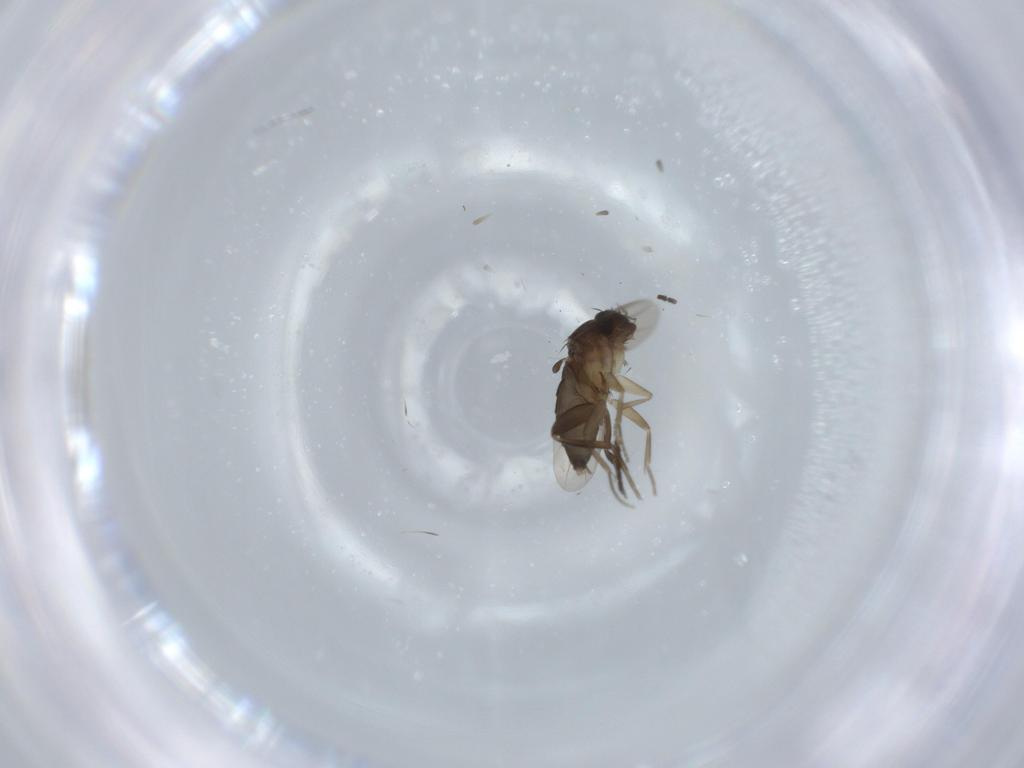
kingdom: Animalia
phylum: Arthropoda
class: Insecta
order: Diptera
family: Phoridae
